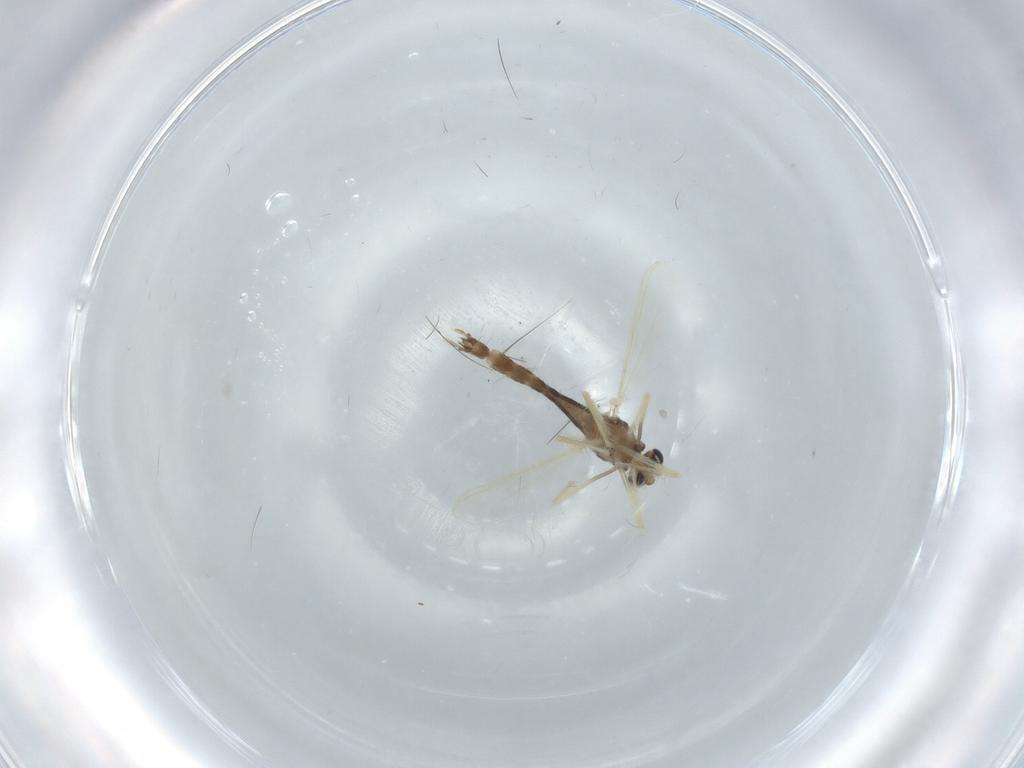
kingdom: Animalia
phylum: Arthropoda
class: Insecta
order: Diptera
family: Chironomidae
